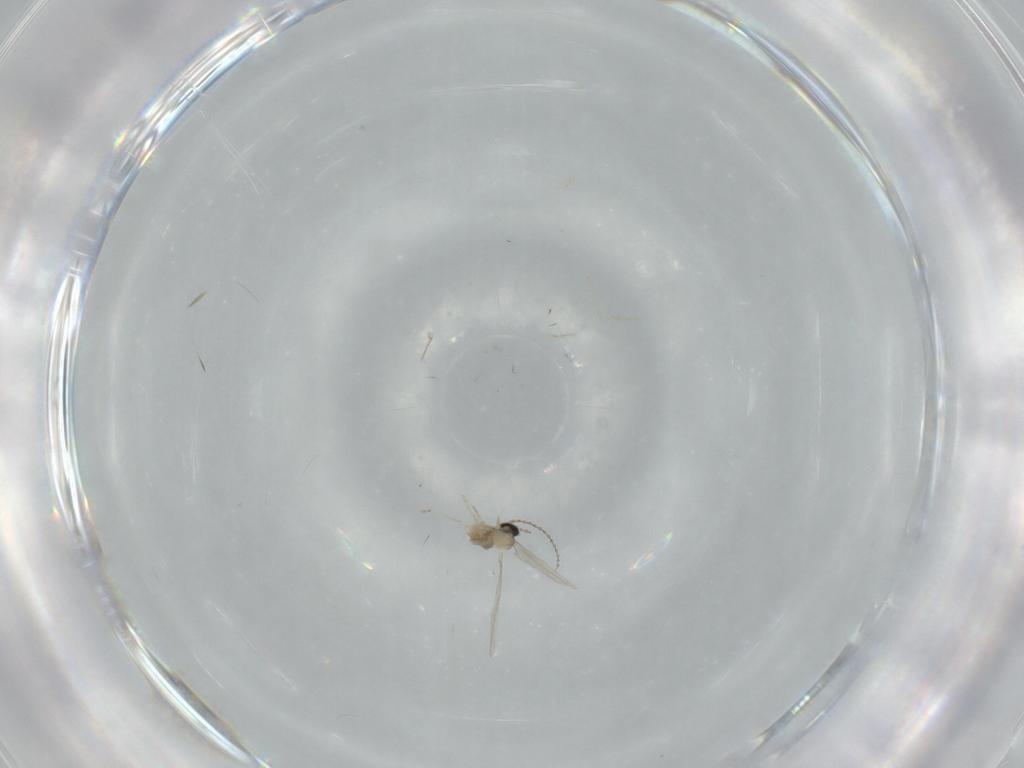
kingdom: Animalia
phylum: Arthropoda
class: Insecta
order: Diptera
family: Cecidomyiidae
